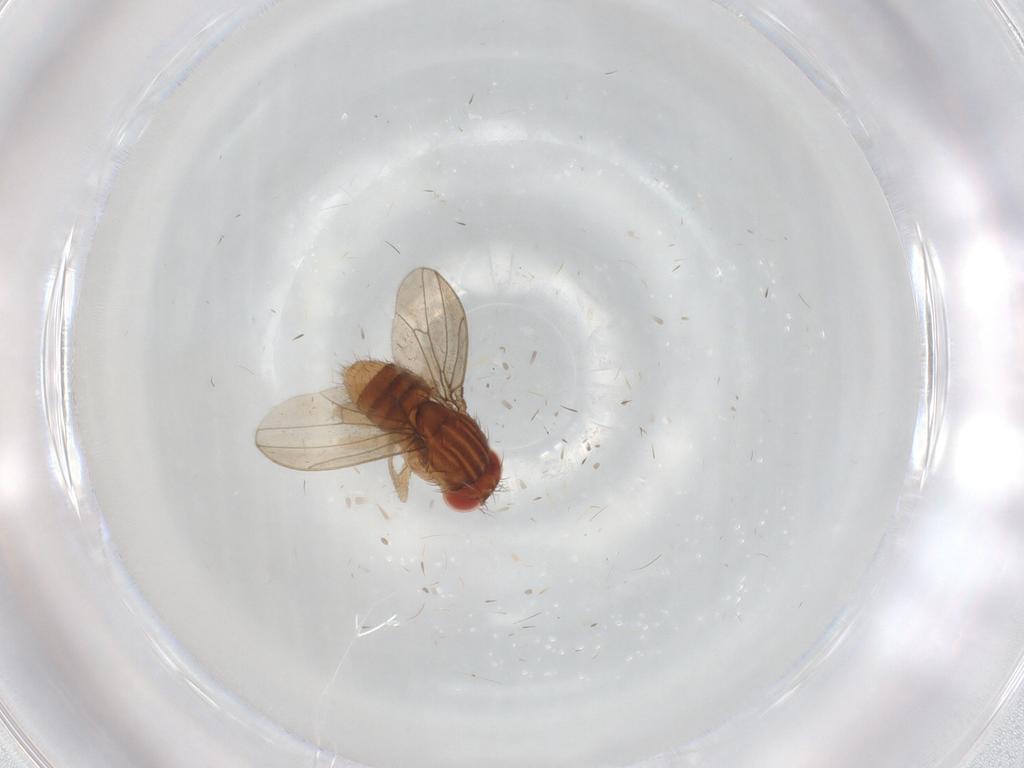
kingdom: Animalia
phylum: Arthropoda
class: Insecta
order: Diptera
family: Drosophilidae
